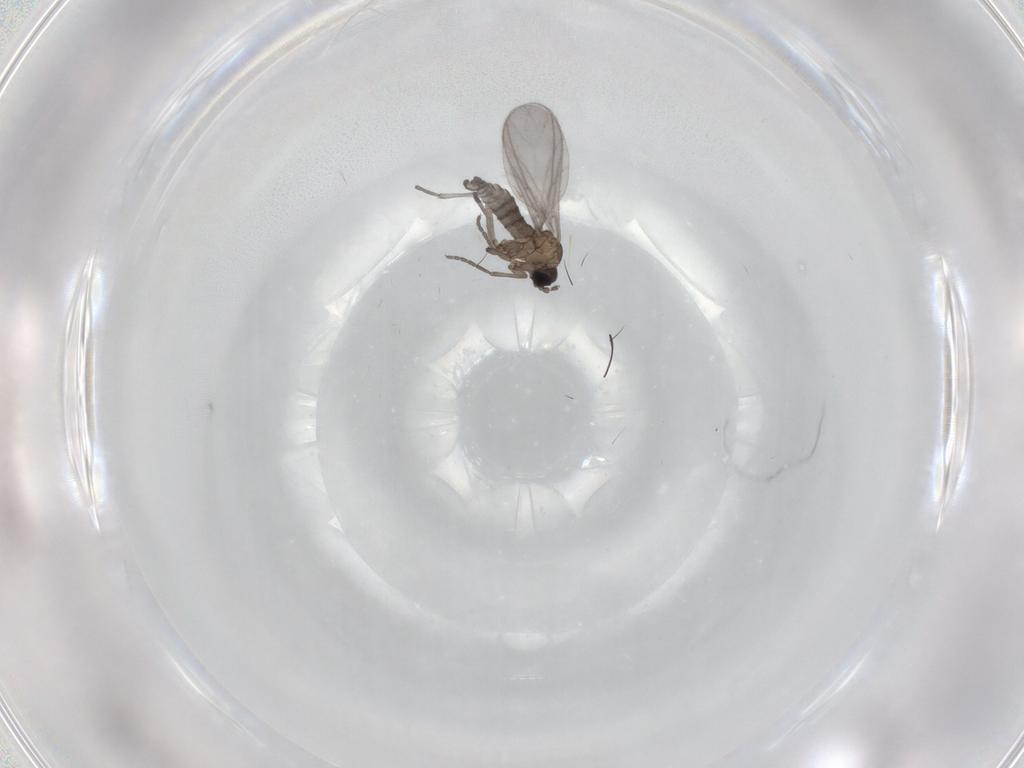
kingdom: Animalia
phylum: Arthropoda
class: Insecta
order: Diptera
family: Sciaridae
